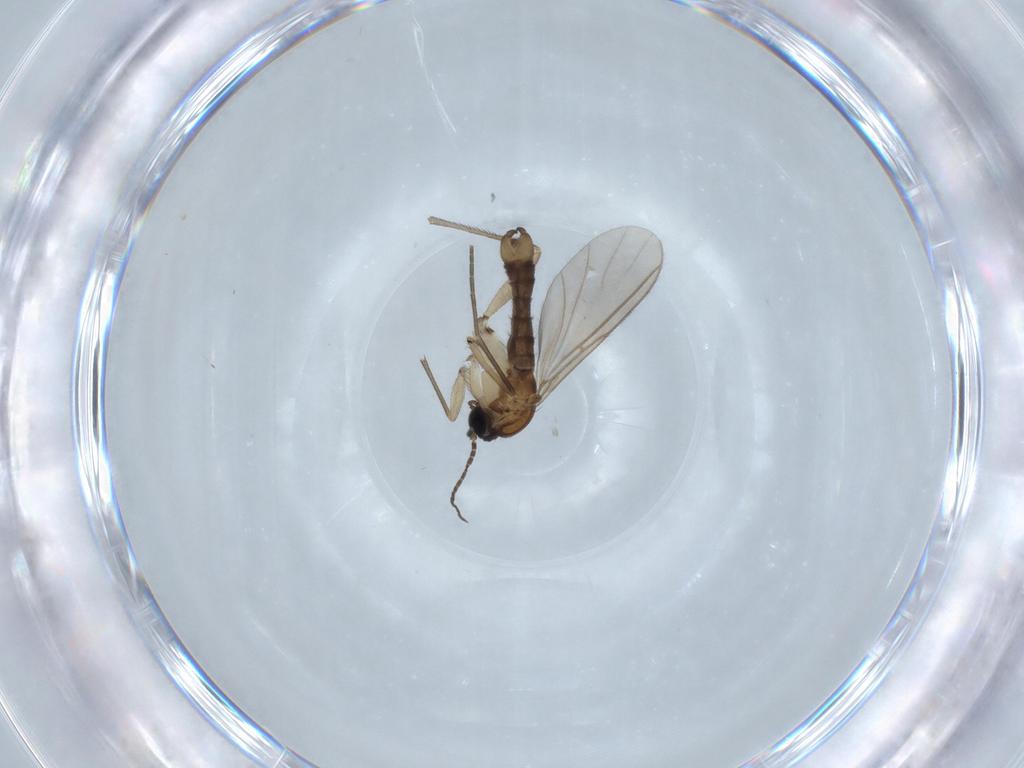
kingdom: Animalia
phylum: Arthropoda
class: Insecta
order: Diptera
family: Sciaridae
